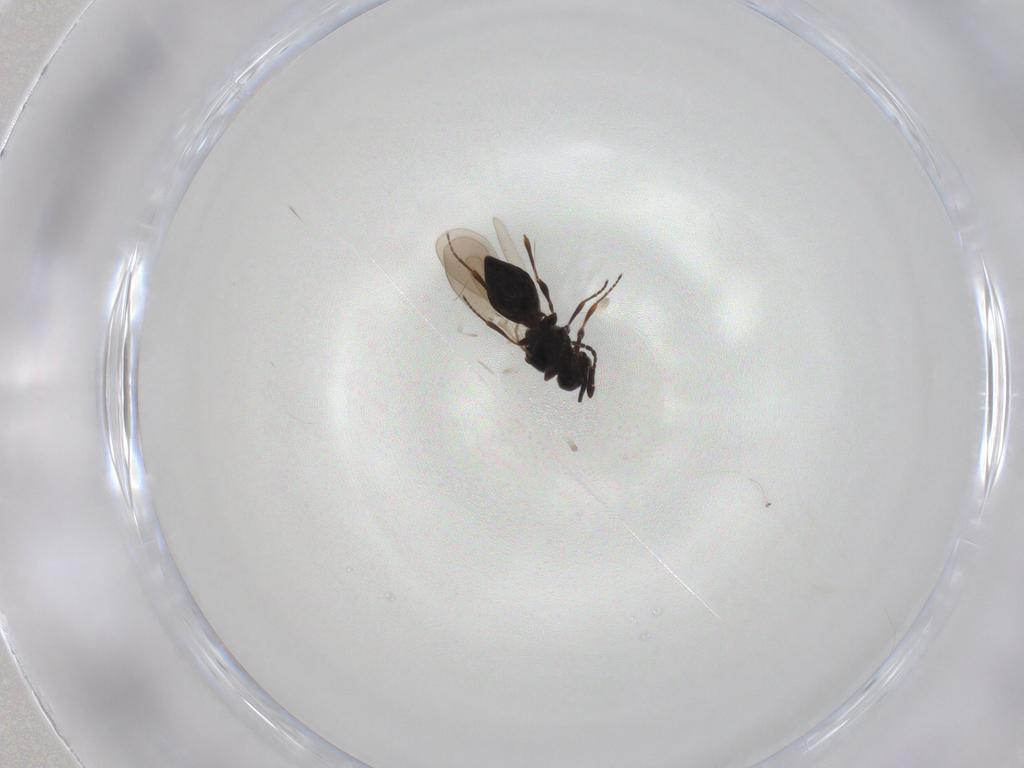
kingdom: Animalia
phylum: Arthropoda
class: Insecta
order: Hymenoptera
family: Platygastridae
